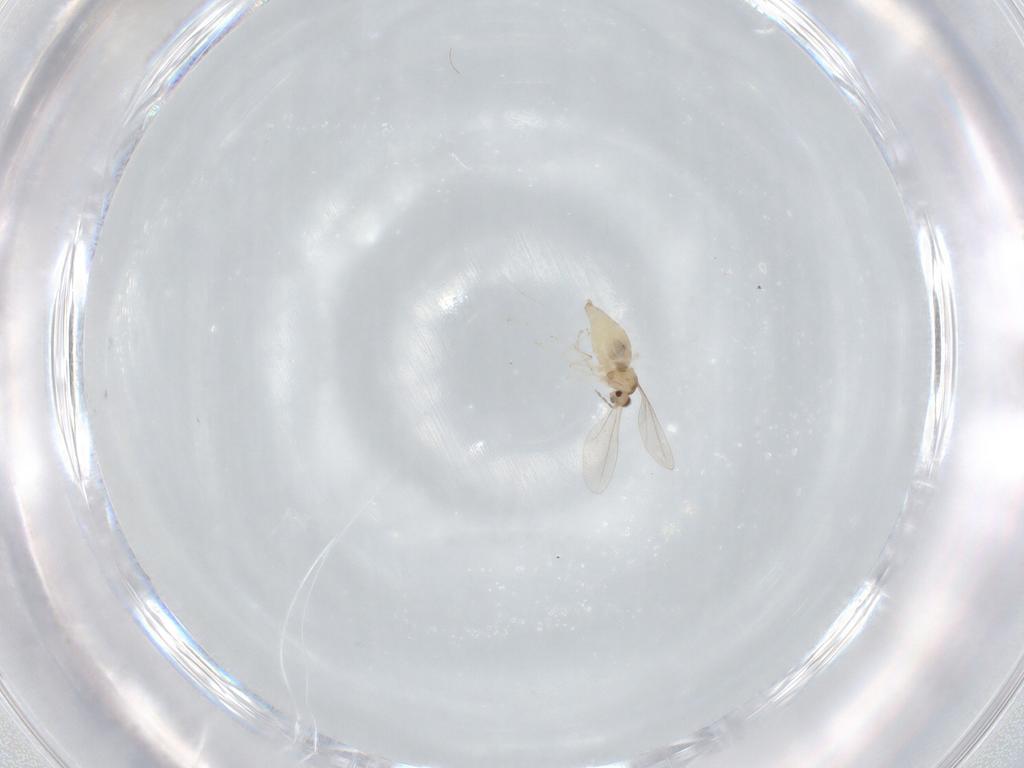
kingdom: Animalia
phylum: Arthropoda
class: Insecta
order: Diptera
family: Cecidomyiidae
